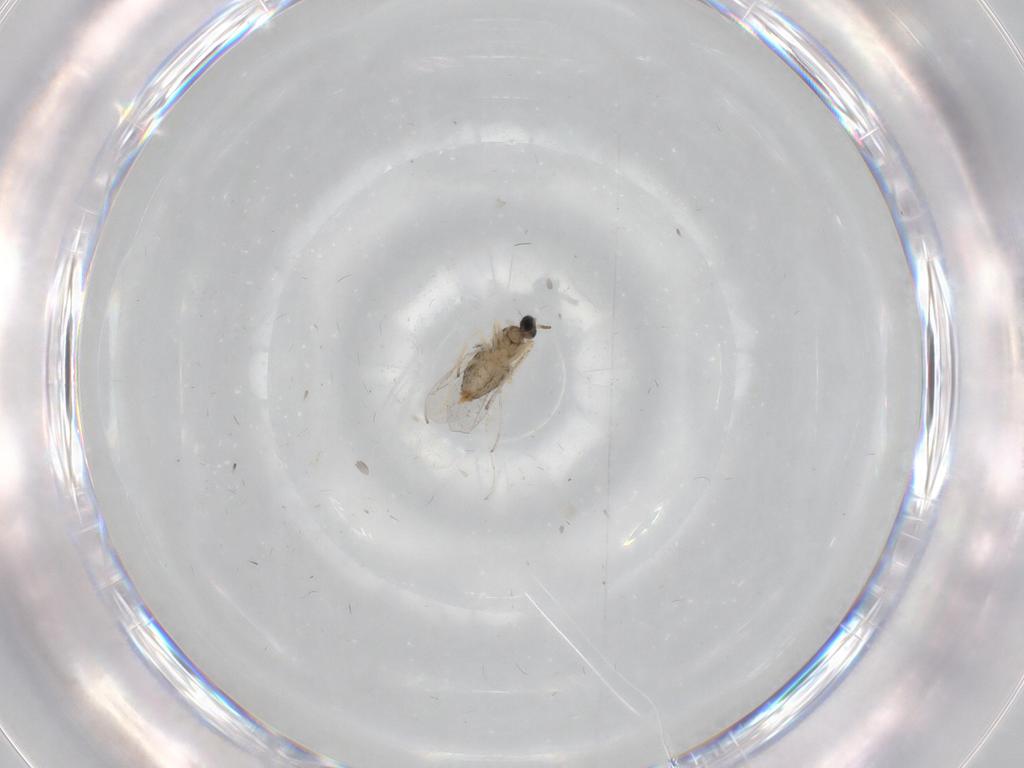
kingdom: Animalia
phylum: Arthropoda
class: Insecta
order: Diptera
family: Cecidomyiidae
